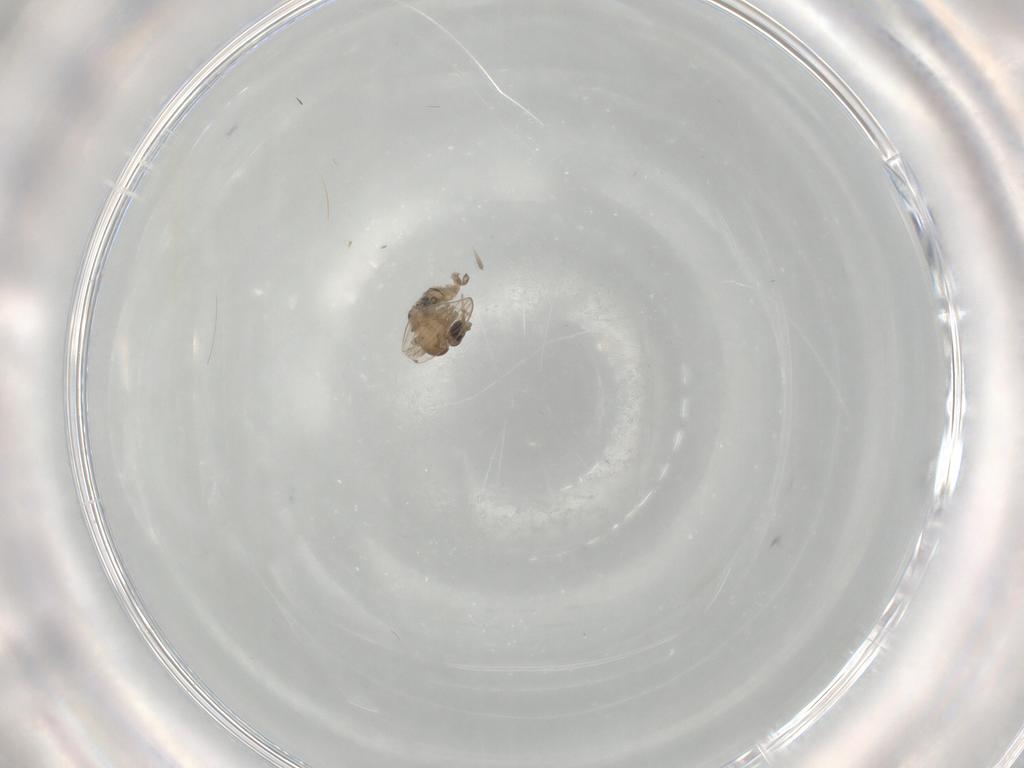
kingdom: Animalia
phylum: Arthropoda
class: Insecta
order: Diptera
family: Psychodidae
